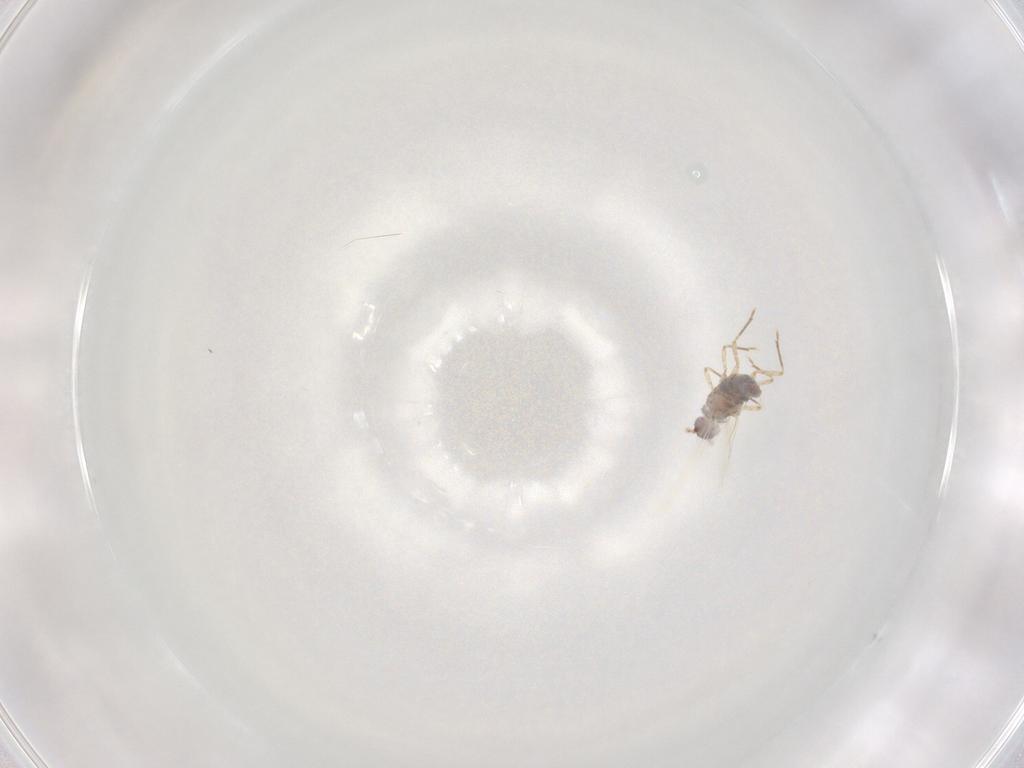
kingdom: Animalia
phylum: Arthropoda
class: Insecta
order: Hemiptera
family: Pseudococcidae
